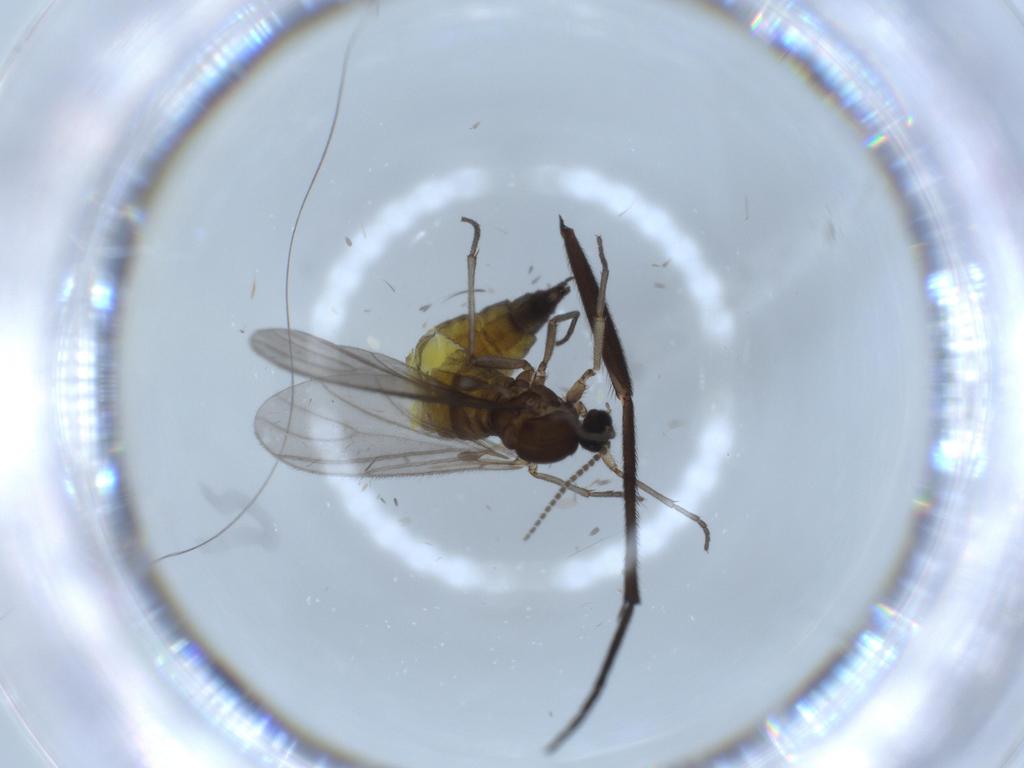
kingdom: Animalia
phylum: Arthropoda
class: Insecta
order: Diptera
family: Sciaridae
